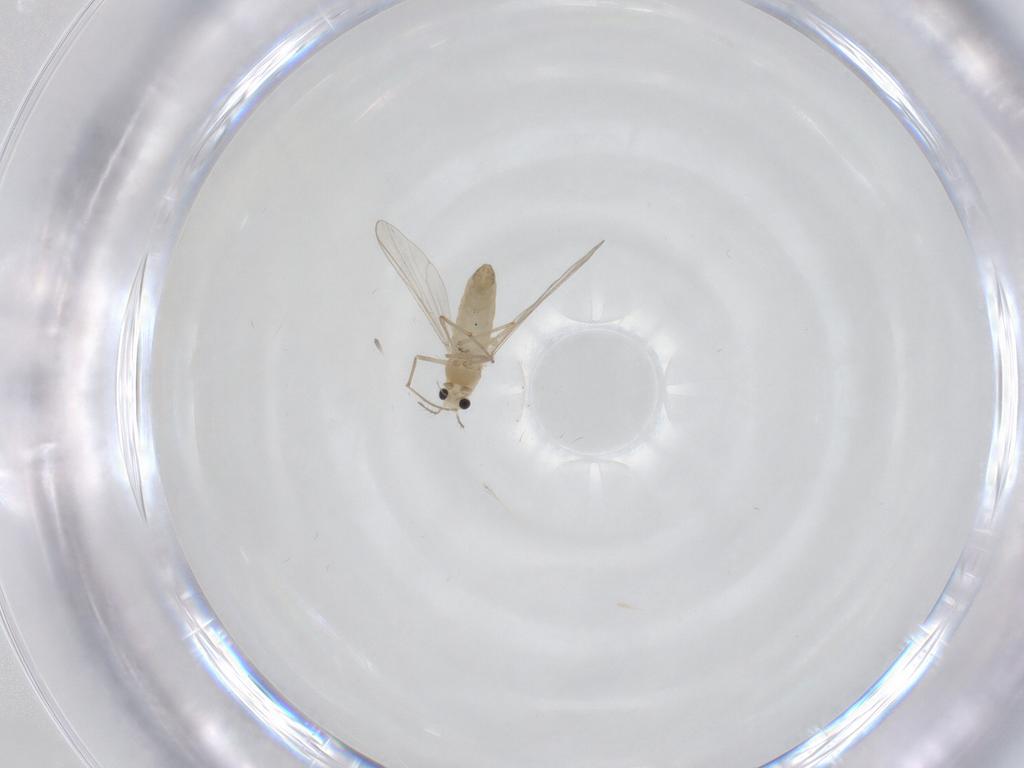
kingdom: Animalia
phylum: Arthropoda
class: Insecta
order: Diptera
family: Chironomidae
